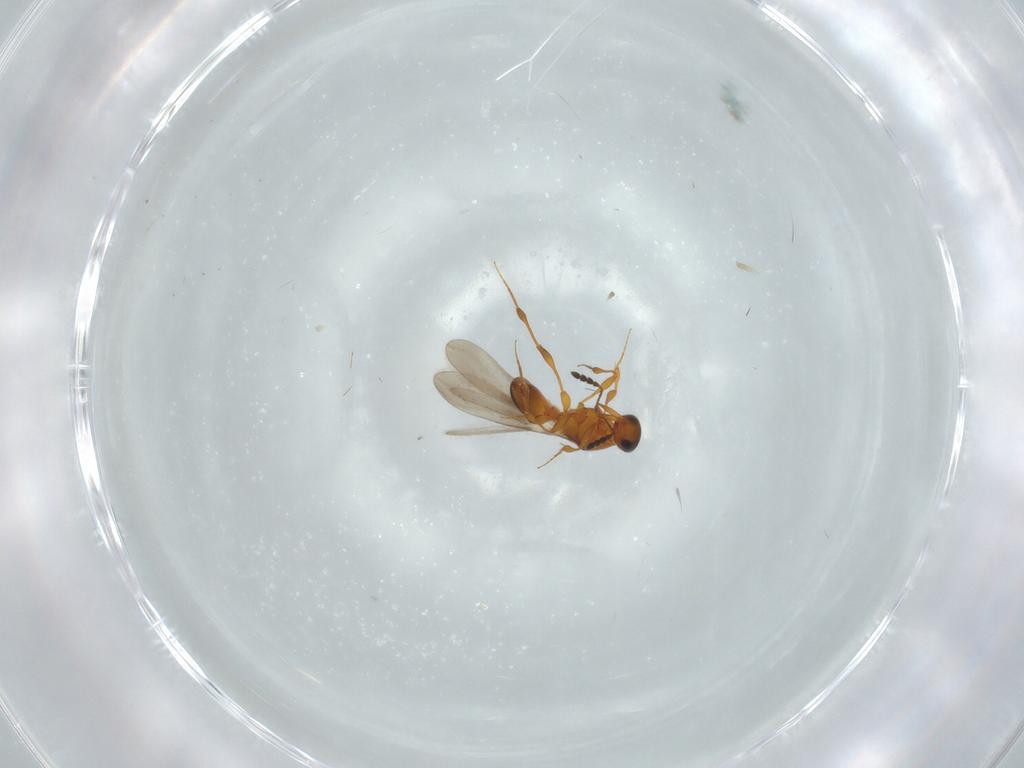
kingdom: Animalia
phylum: Arthropoda
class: Insecta
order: Hymenoptera
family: Platygastridae
